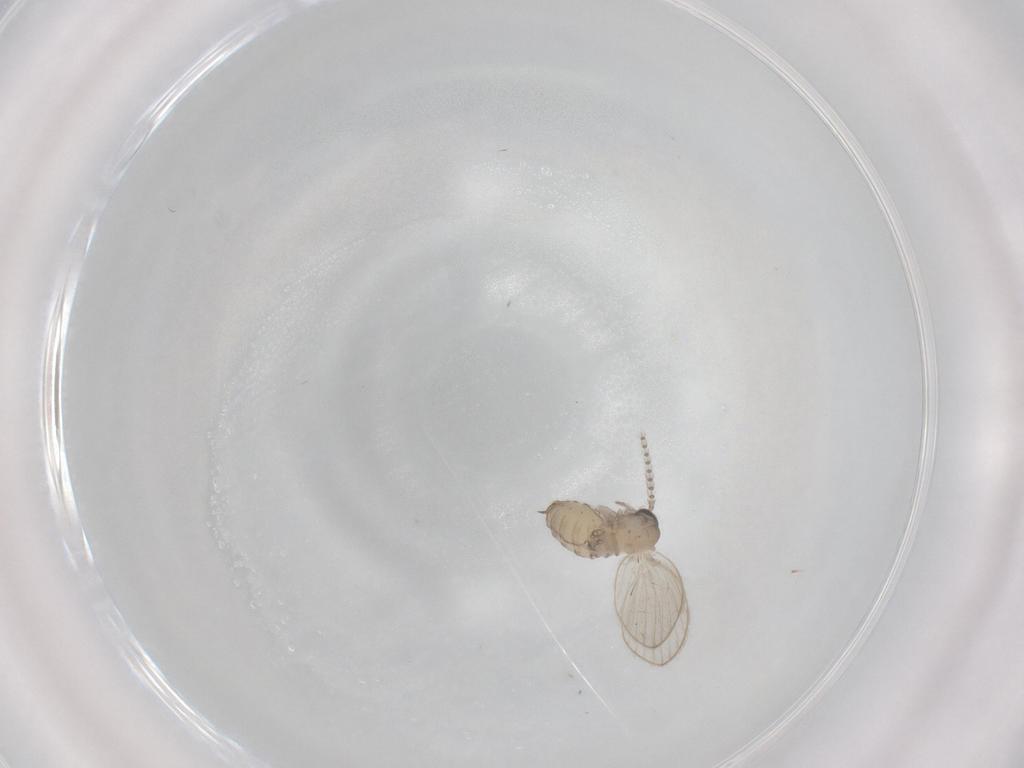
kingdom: Animalia
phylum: Arthropoda
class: Insecta
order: Diptera
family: Psychodidae
